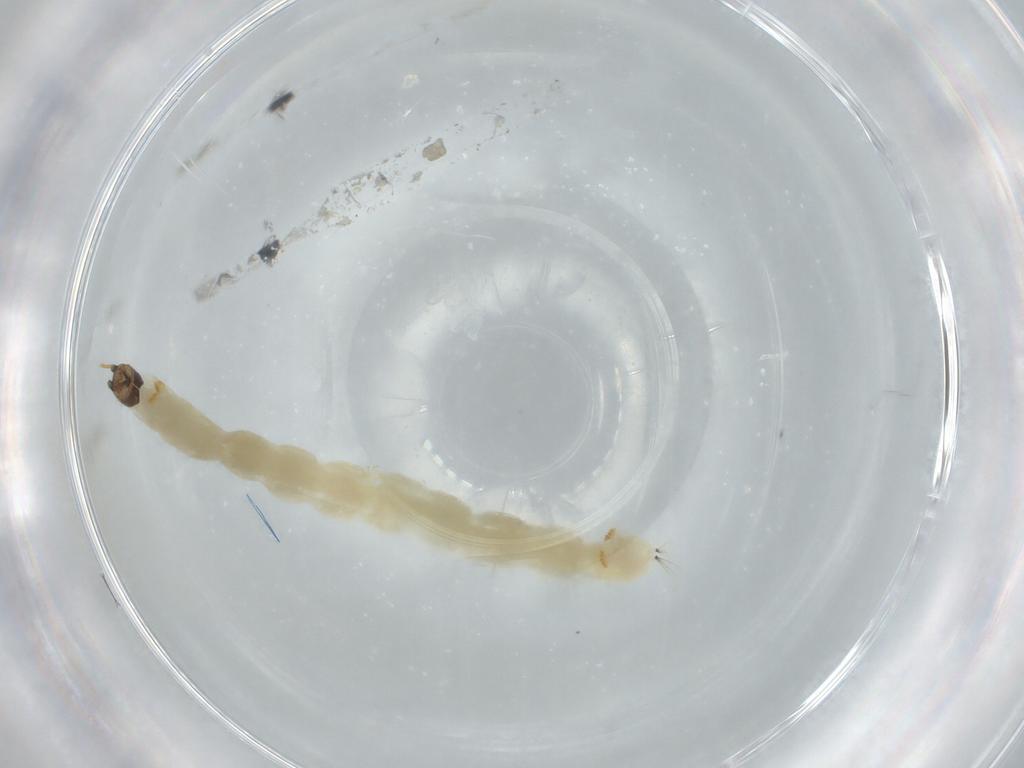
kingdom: Animalia
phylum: Arthropoda
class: Insecta
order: Diptera
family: Chironomidae
